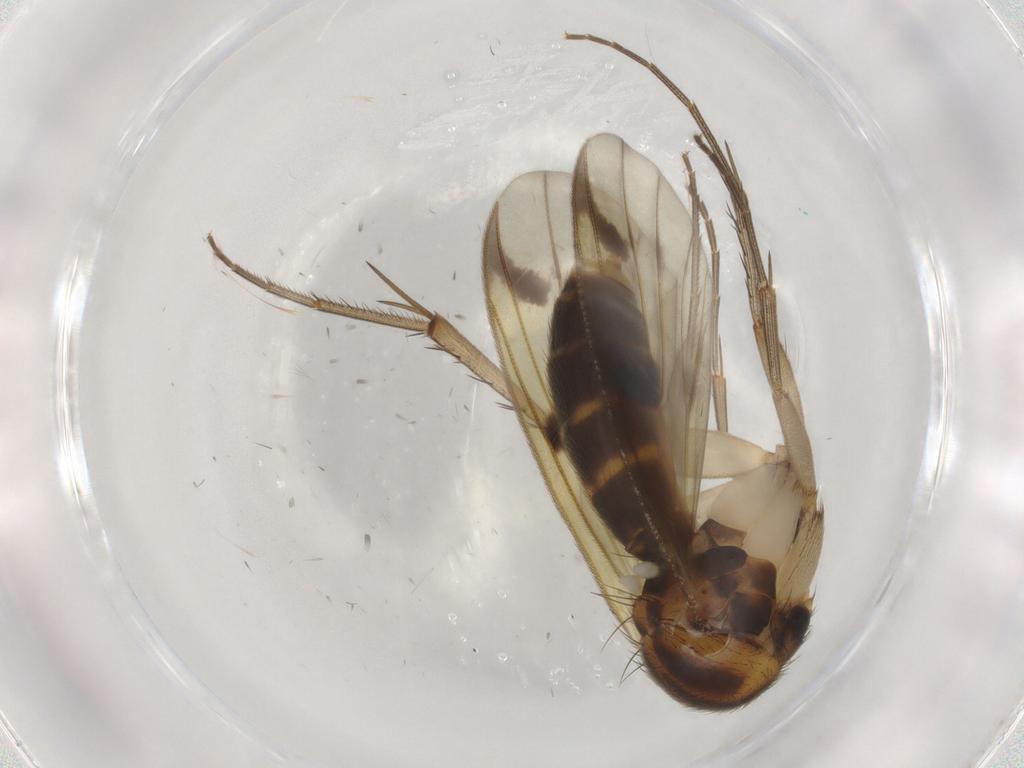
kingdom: Animalia
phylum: Arthropoda
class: Insecta
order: Diptera
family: Mycetophilidae
